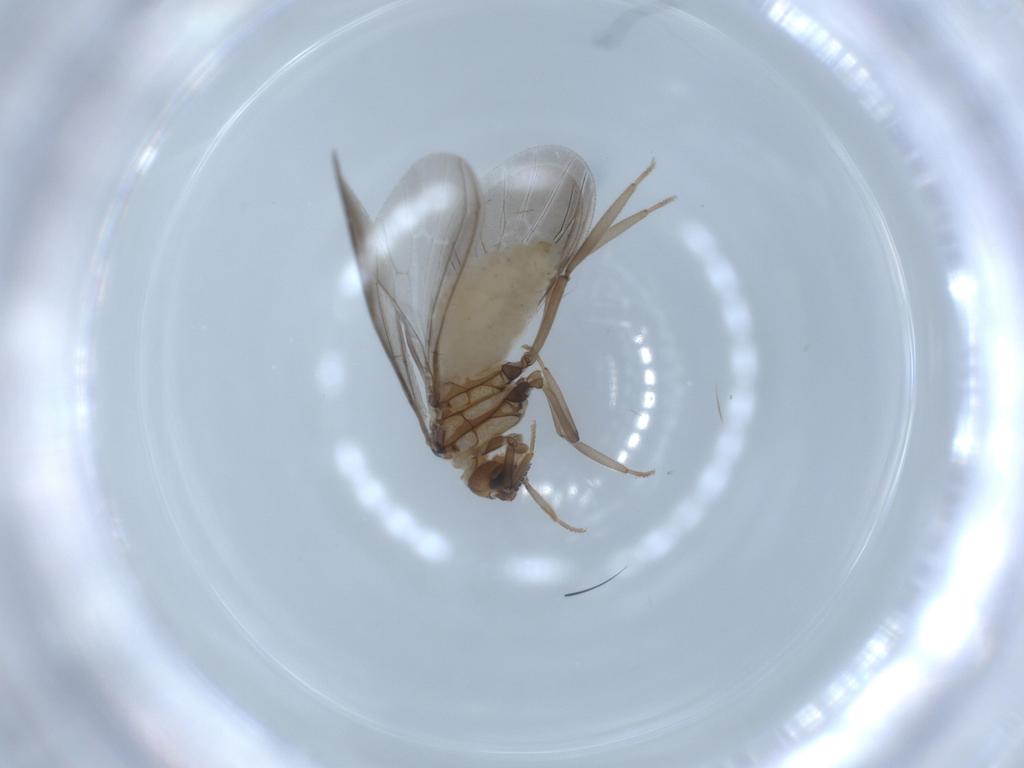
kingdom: Animalia
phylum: Arthropoda
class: Insecta
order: Neuroptera
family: Coniopterygidae
